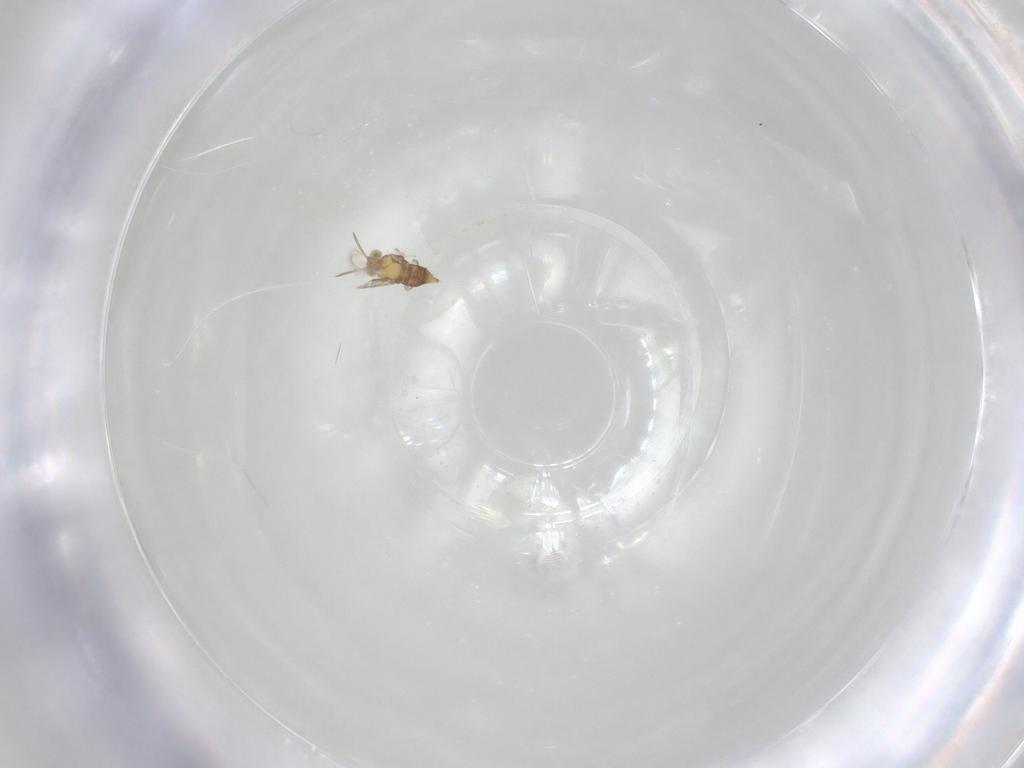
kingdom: Animalia
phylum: Arthropoda
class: Insecta
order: Hymenoptera
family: Aphelinidae
